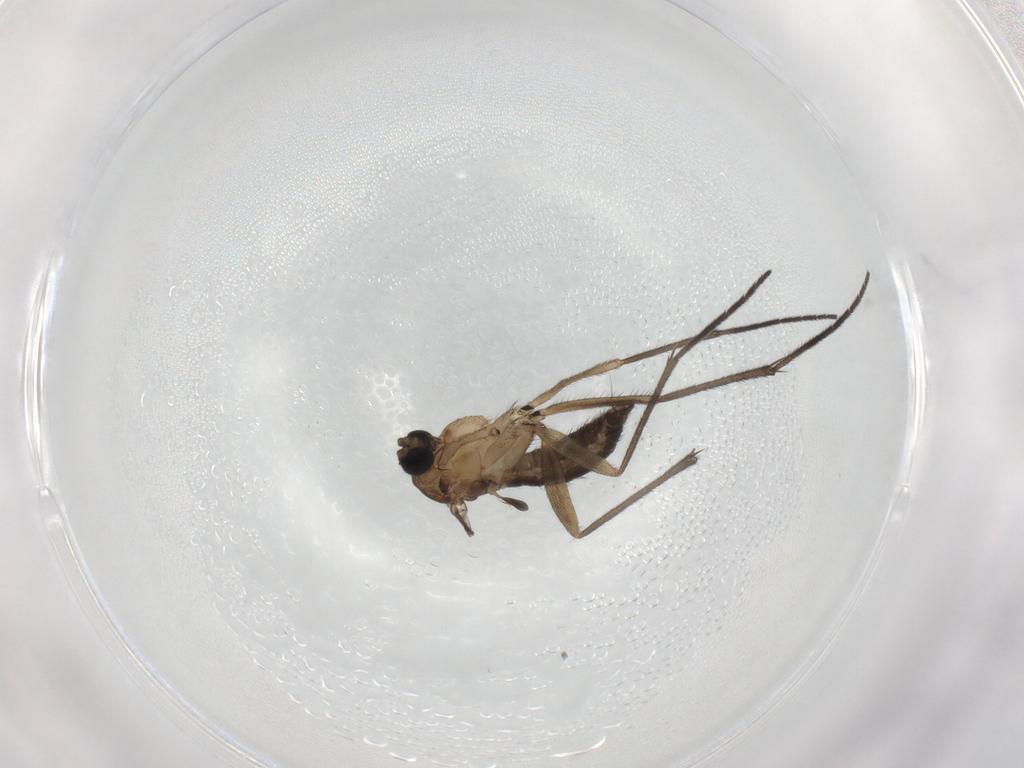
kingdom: Animalia
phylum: Arthropoda
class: Insecta
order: Diptera
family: Sciaridae
